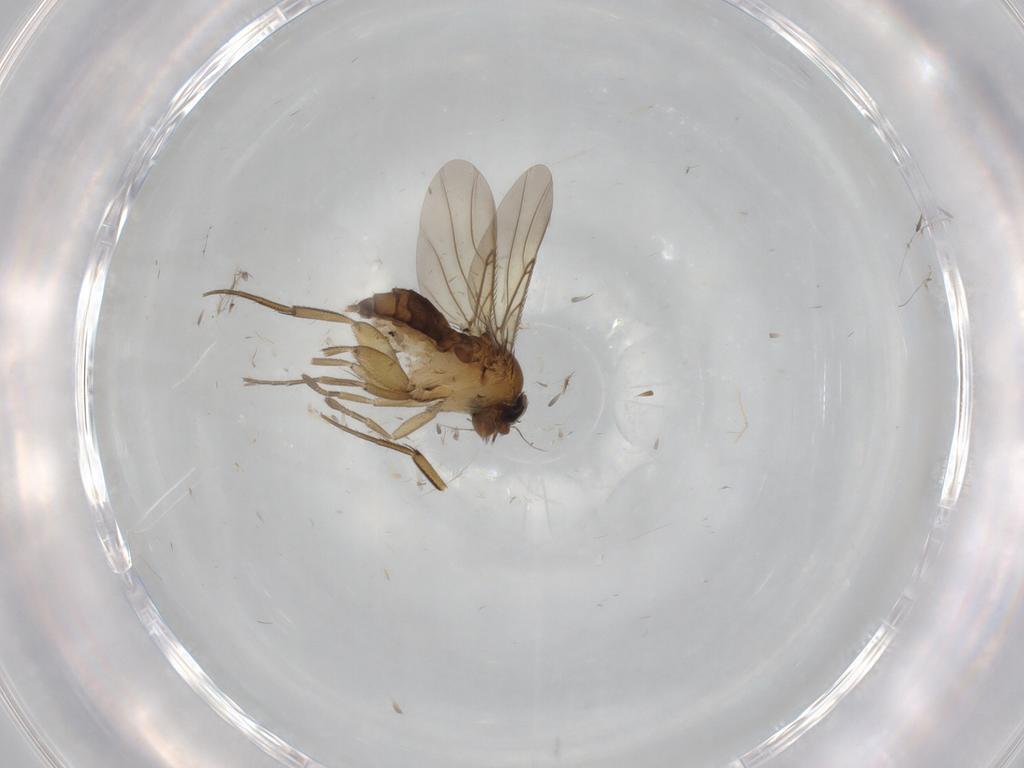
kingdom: Animalia
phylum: Arthropoda
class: Insecta
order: Diptera
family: Phoridae
